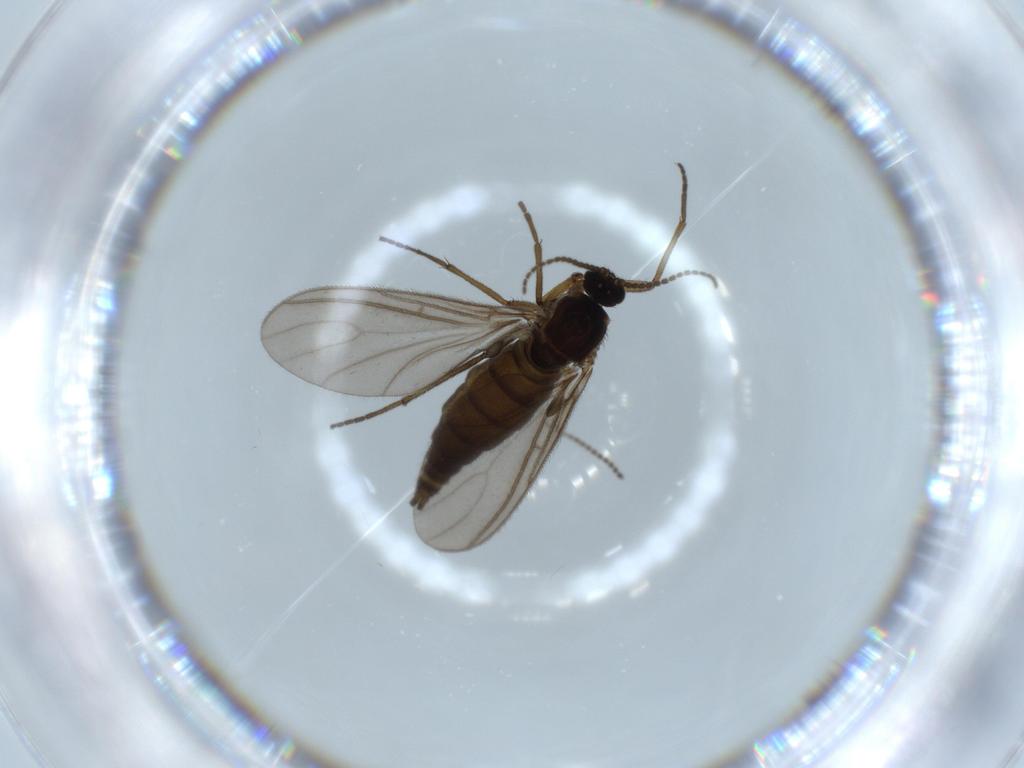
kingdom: Animalia
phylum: Arthropoda
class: Insecta
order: Diptera
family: Sciaridae
